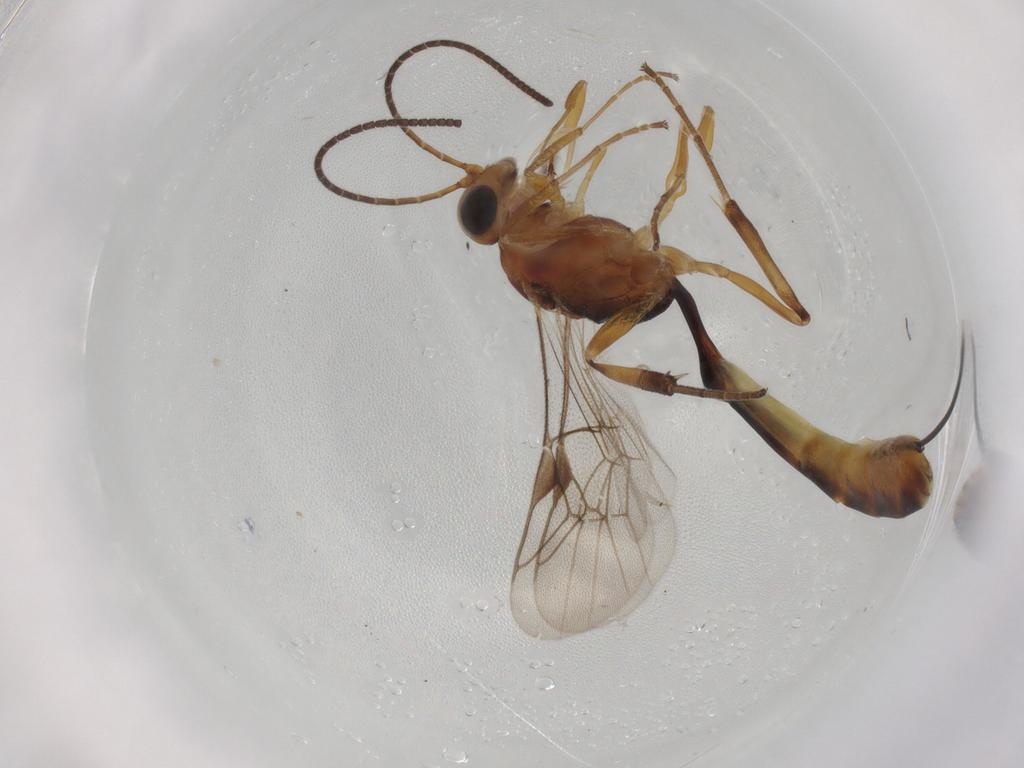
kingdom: Animalia
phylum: Arthropoda
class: Insecta
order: Hymenoptera
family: Ichneumonidae
